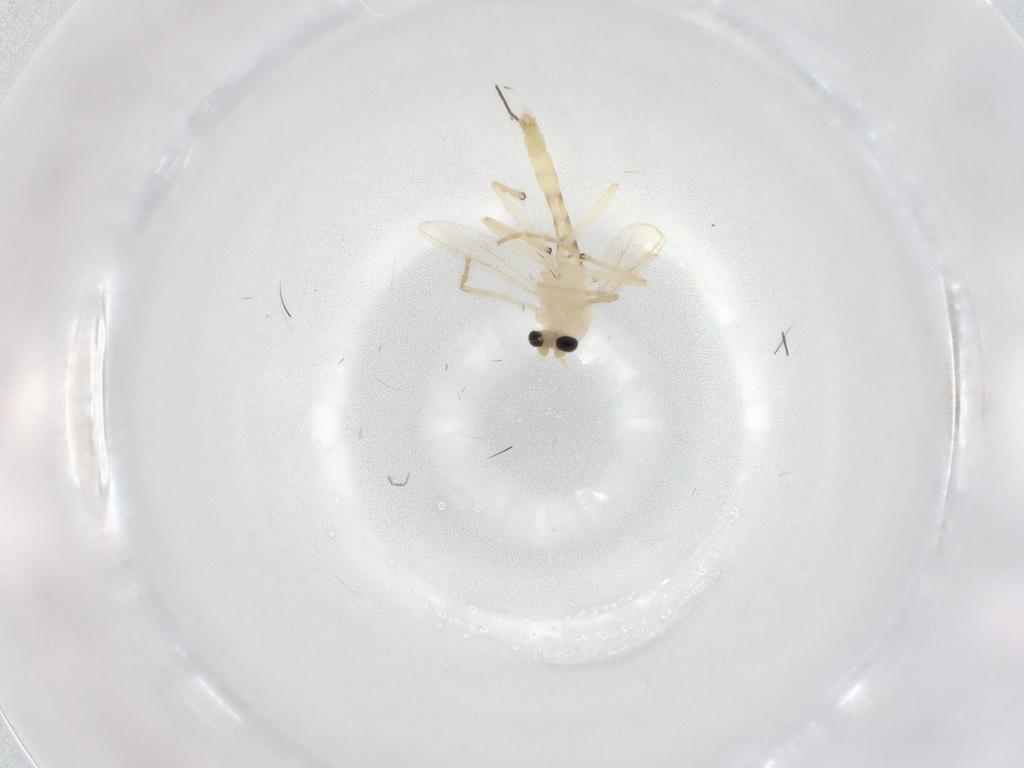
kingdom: Animalia
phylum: Arthropoda
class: Insecta
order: Diptera
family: Chironomidae
